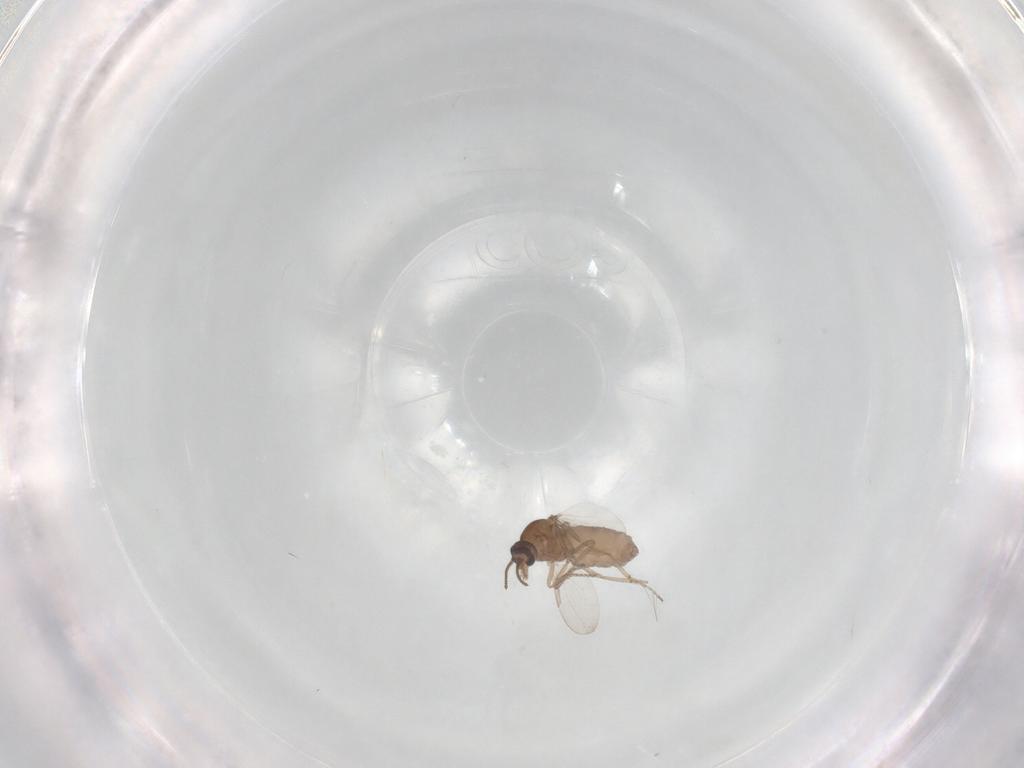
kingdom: Animalia
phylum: Arthropoda
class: Insecta
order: Diptera
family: Ceratopogonidae
